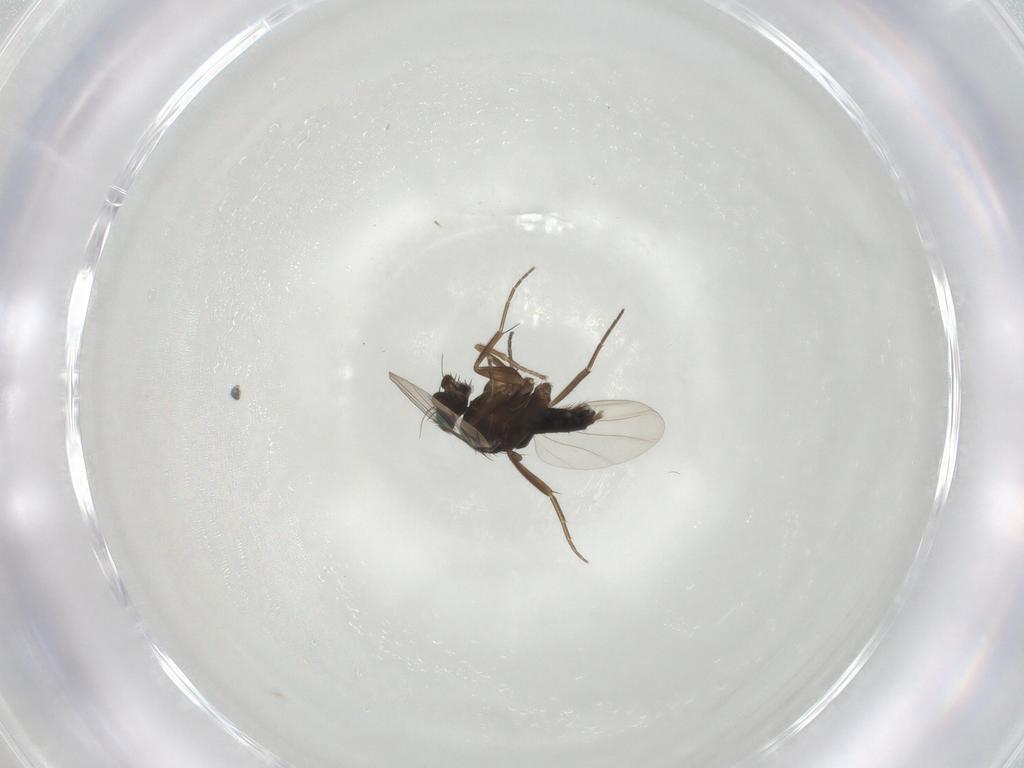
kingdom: Animalia
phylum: Arthropoda
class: Insecta
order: Diptera
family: Phoridae
